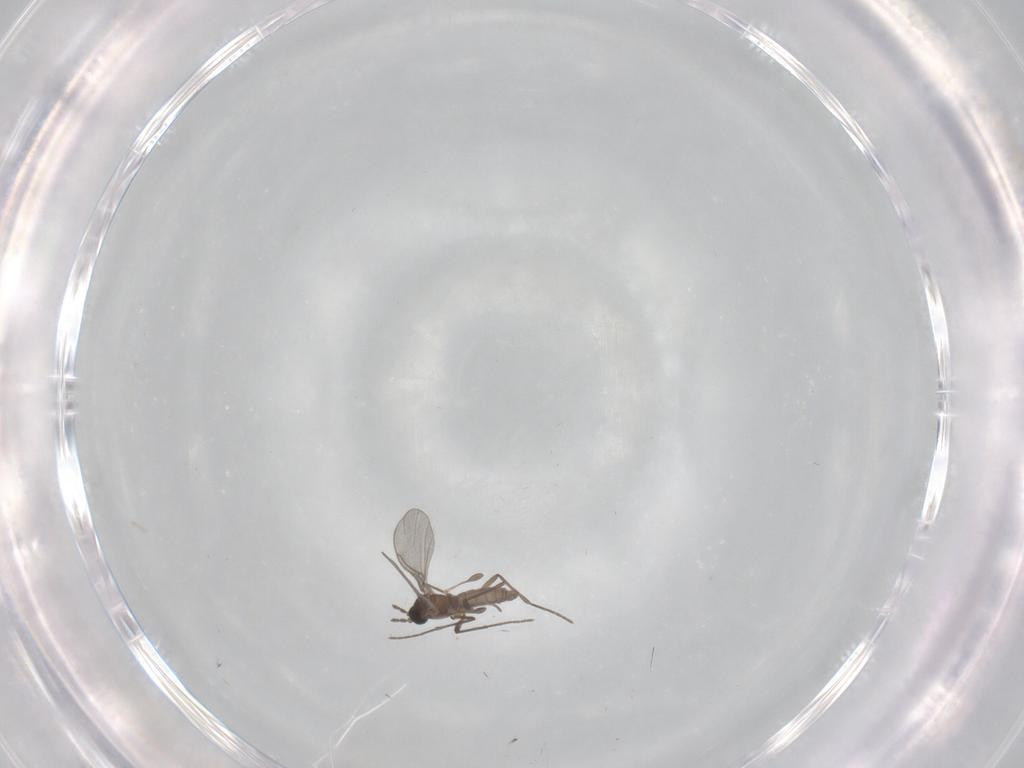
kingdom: Animalia
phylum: Arthropoda
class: Insecta
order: Diptera
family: Sciaridae
